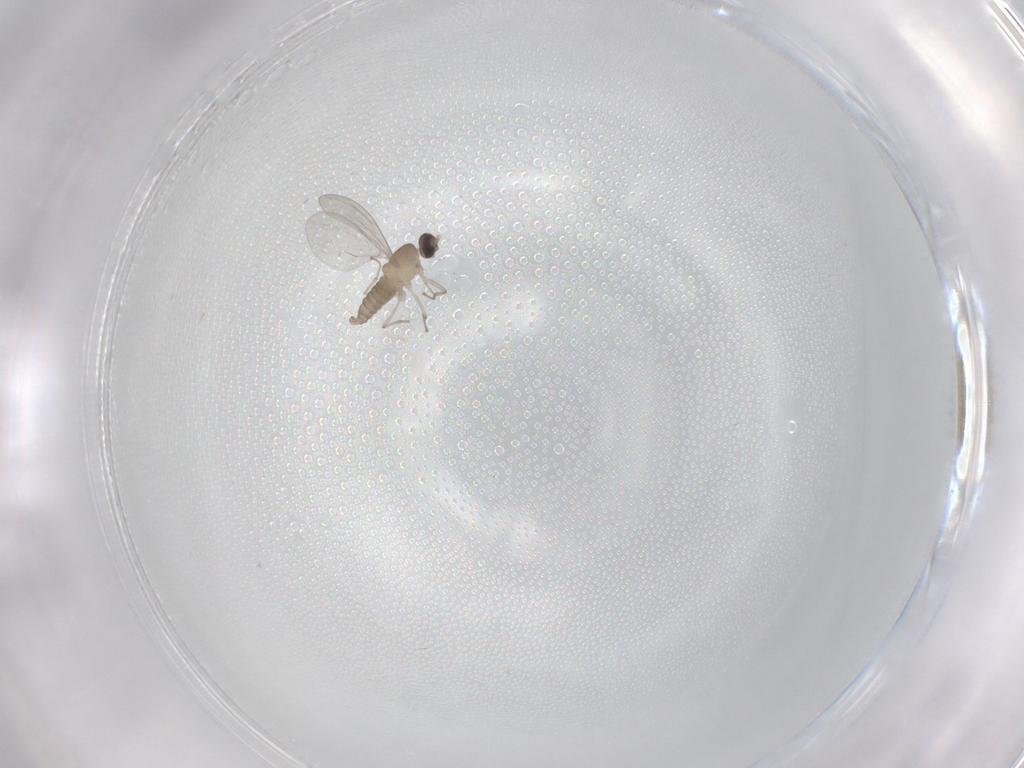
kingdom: Animalia
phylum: Arthropoda
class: Insecta
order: Diptera
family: Cecidomyiidae
